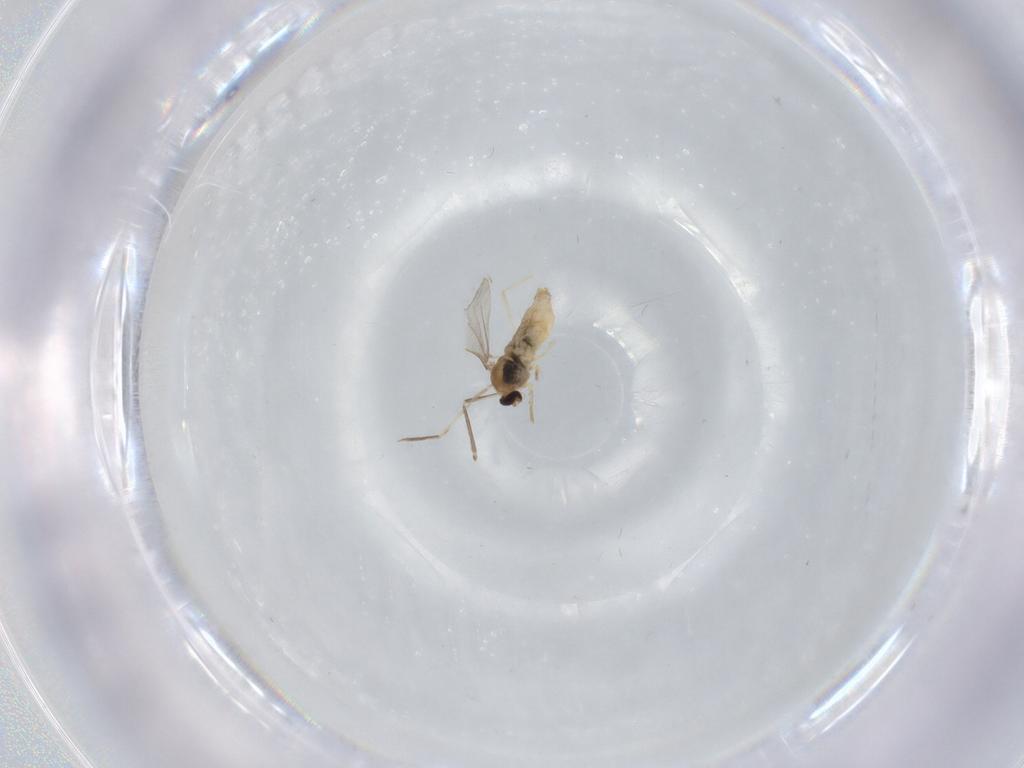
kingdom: Animalia
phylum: Arthropoda
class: Insecta
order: Diptera
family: Cecidomyiidae
